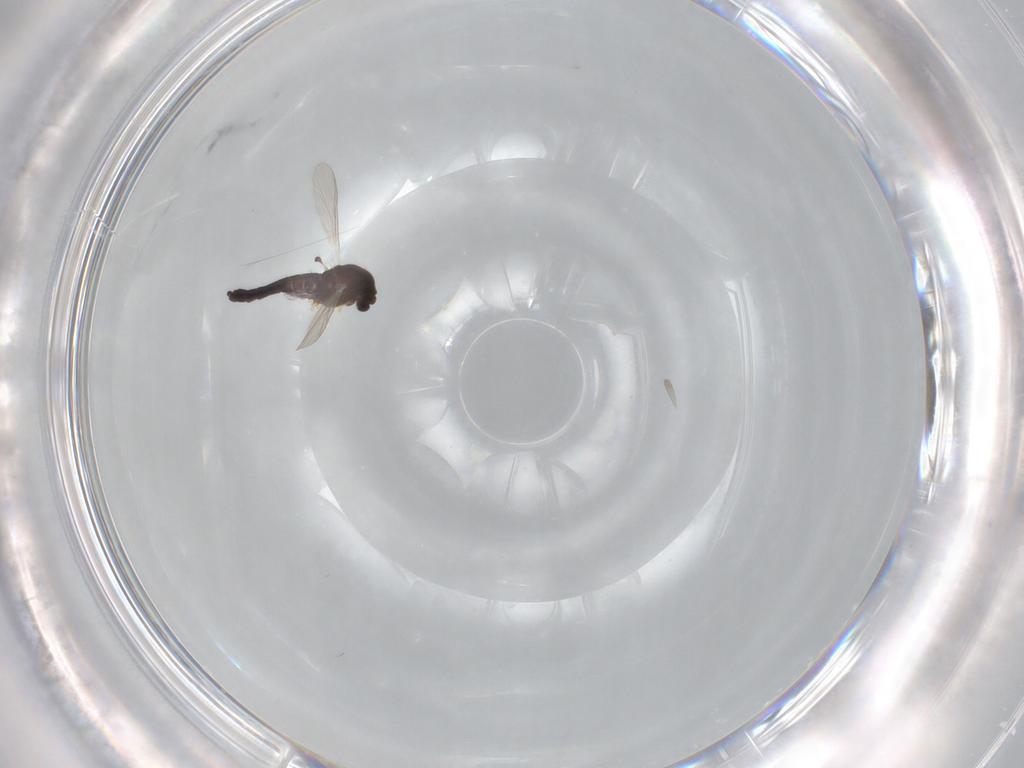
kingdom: Animalia
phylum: Arthropoda
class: Insecta
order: Diptera
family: Chironomidae
